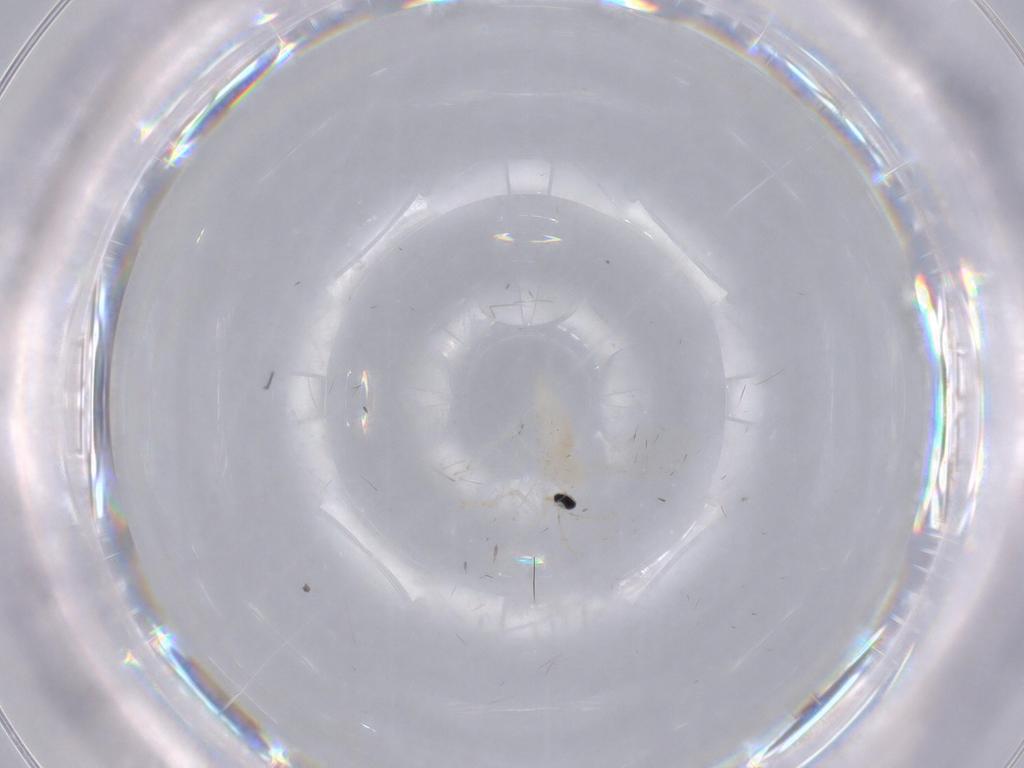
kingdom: Animalia
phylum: Arthropoda
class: Insecta
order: Diptera
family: Cecidomyiidae
